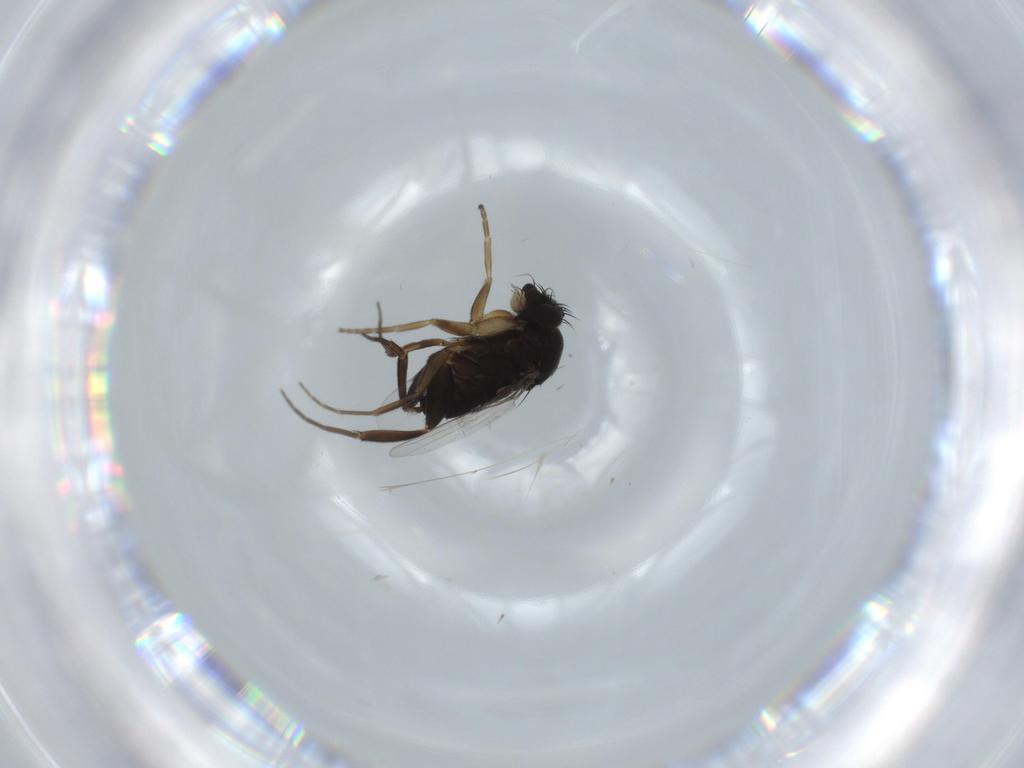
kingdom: Animalia
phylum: Arthropoda
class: Insecta
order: Diptera
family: Phoridae
